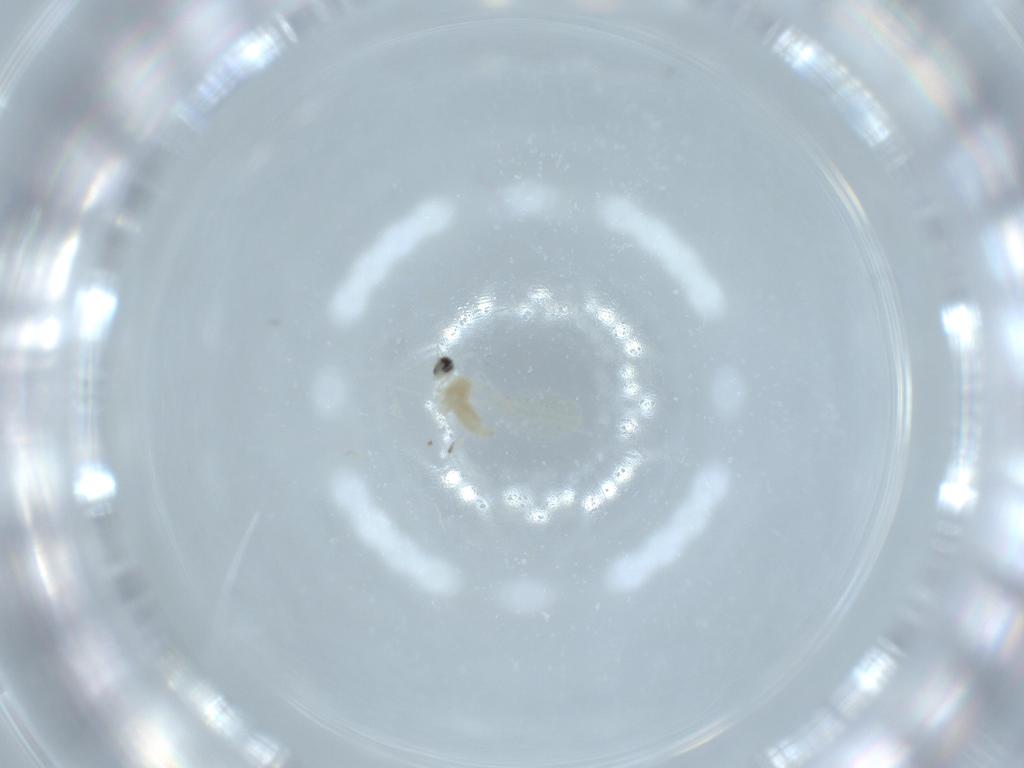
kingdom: Animalia
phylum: Arthropoda
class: Insecta
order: Diptera
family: Cecidomyiidae
